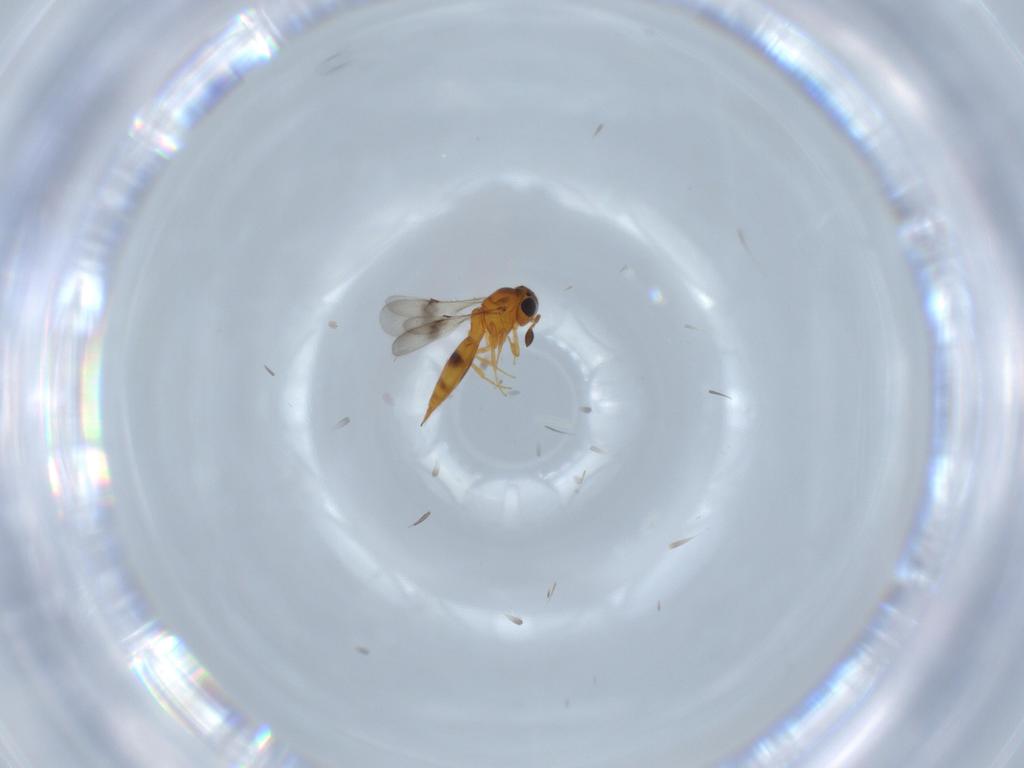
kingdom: Animalia
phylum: Arthropoda
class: Insecta
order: Hymenoptera
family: Scelionidae
